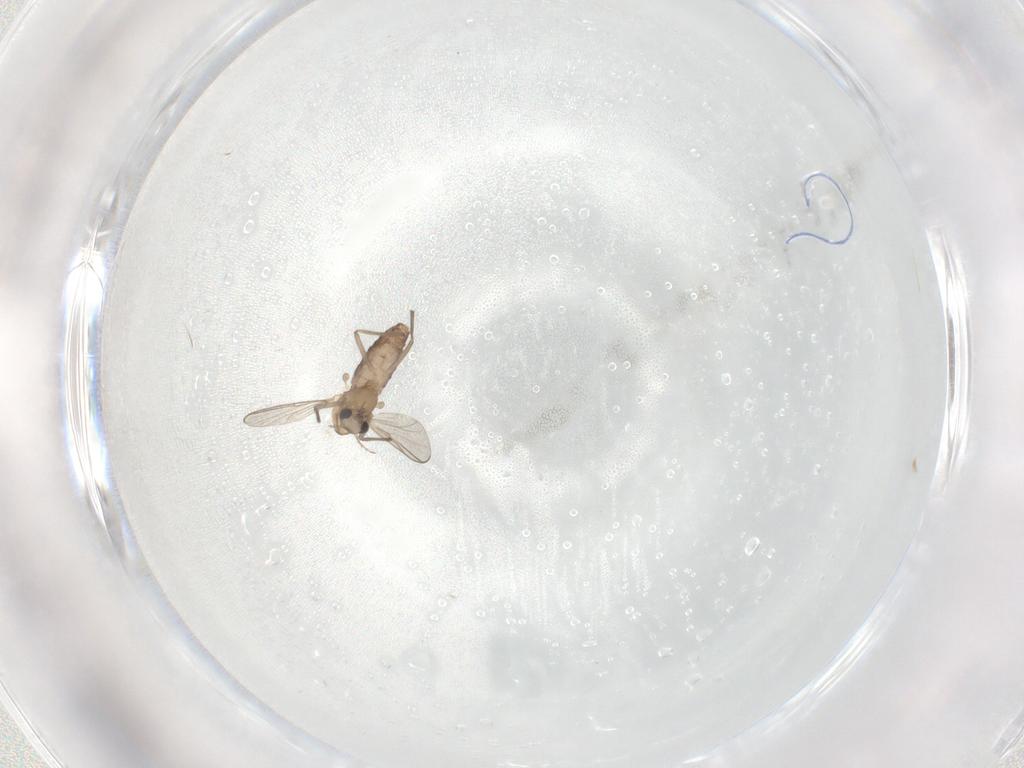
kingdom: Animalia
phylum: Arthropoda
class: Insecta
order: Diptera
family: Chironomidae
